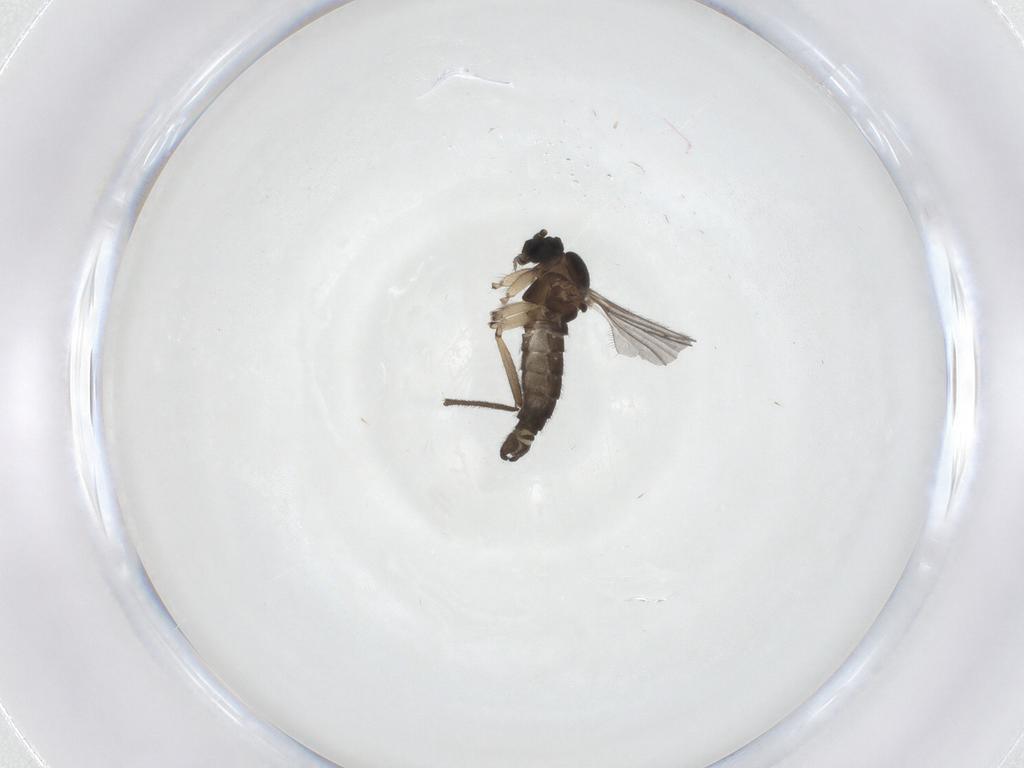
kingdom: Animalia
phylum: Arthropoda
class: Insecta
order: Diptera
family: Sciaridae
